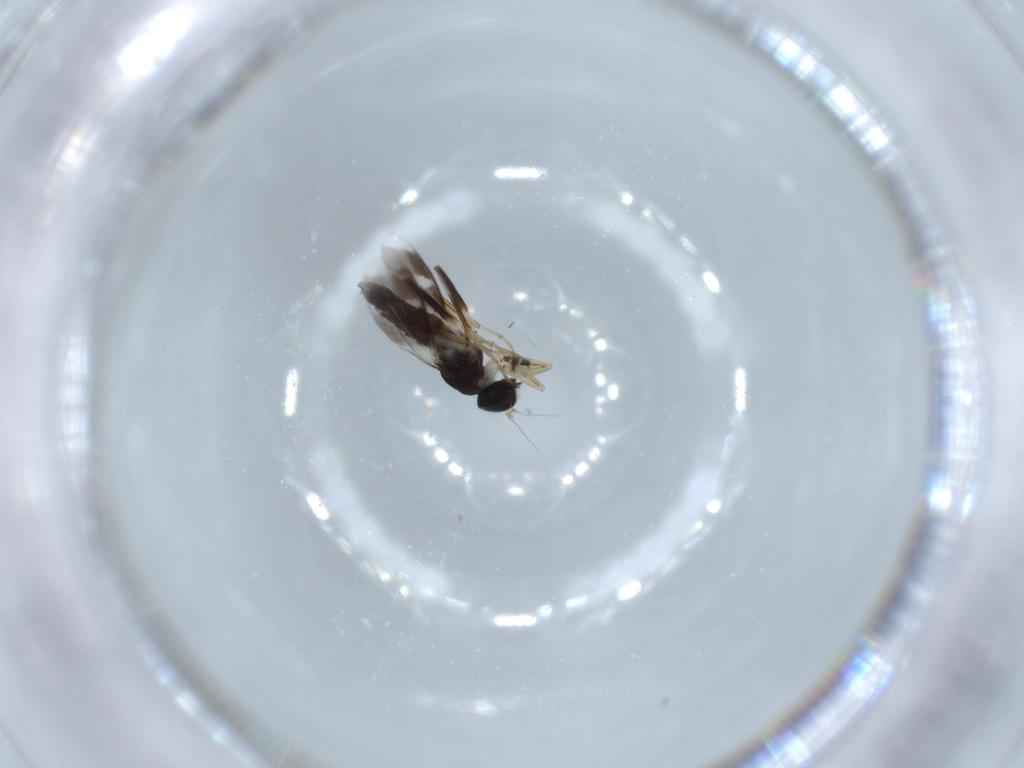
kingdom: Animalia
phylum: Arthropoda
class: Insecta
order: Diptera
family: Hybotidae
